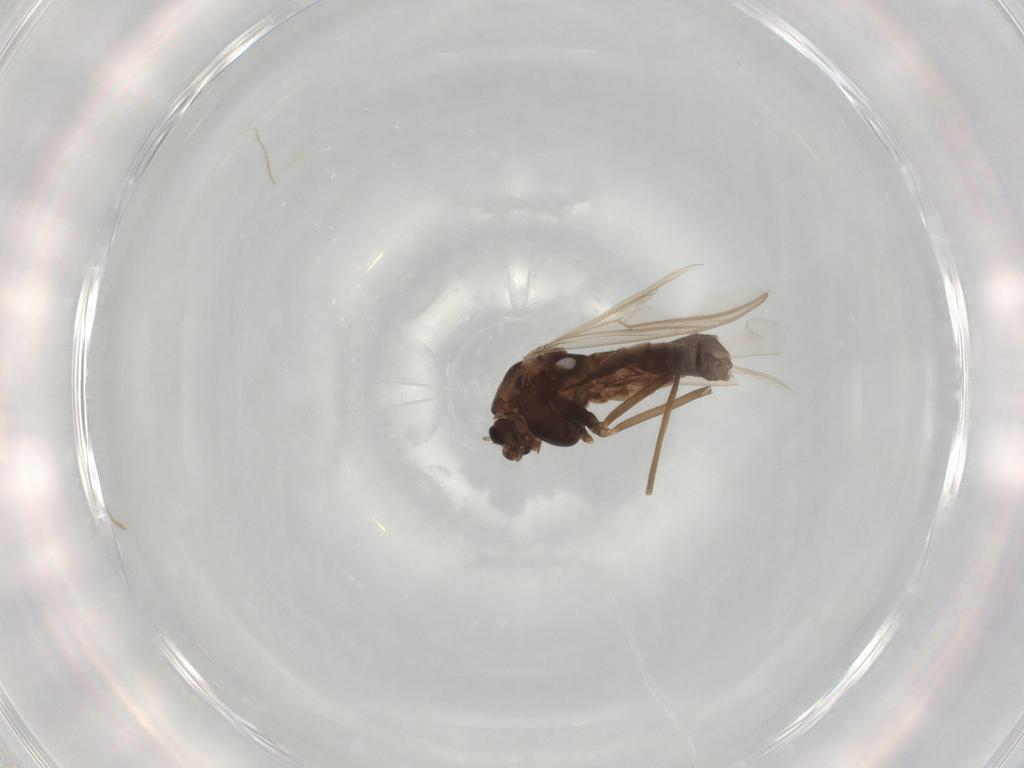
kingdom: Animalia
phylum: Arthropoda
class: Insecta
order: Diptera
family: Chironomidae
